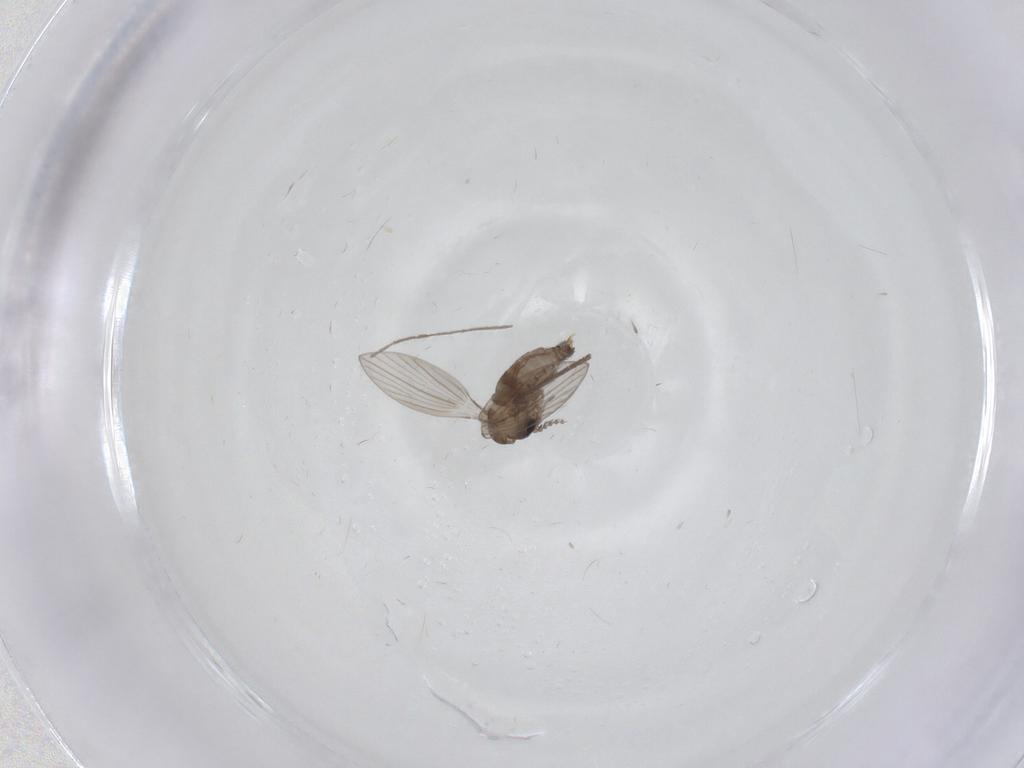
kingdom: Animalia
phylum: Arthropoda
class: Insecta
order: Diptera
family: Psychodidae
